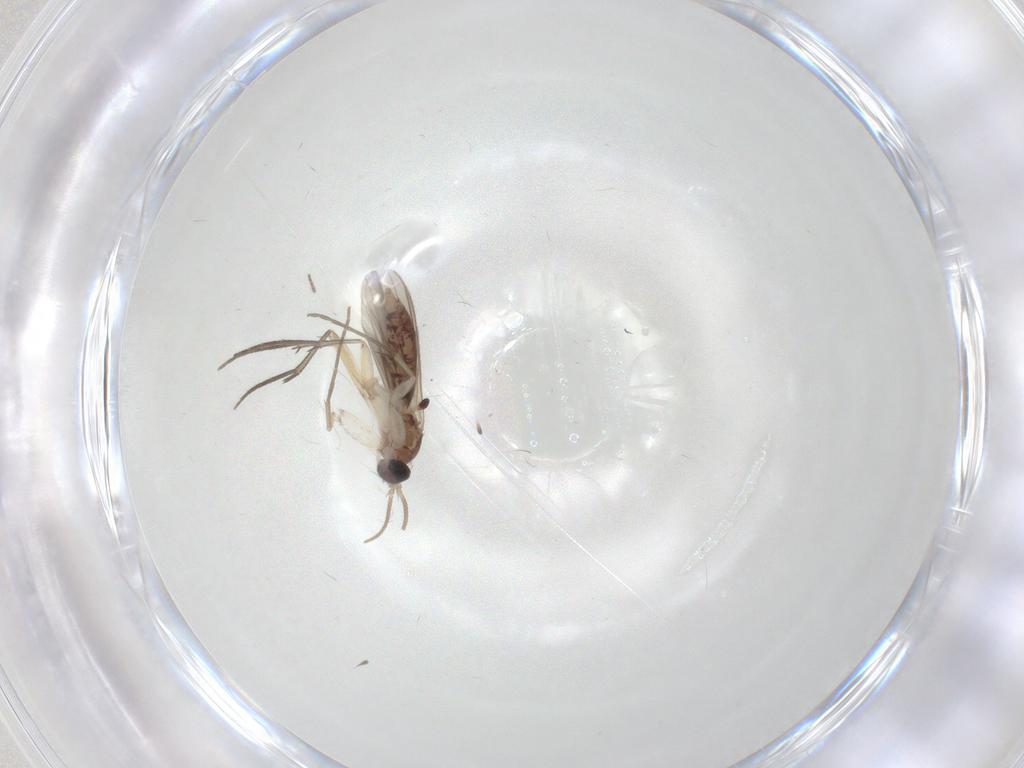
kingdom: Animalia
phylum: Arthropoda
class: Insecta
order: Diptera
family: Mycetophilidae
